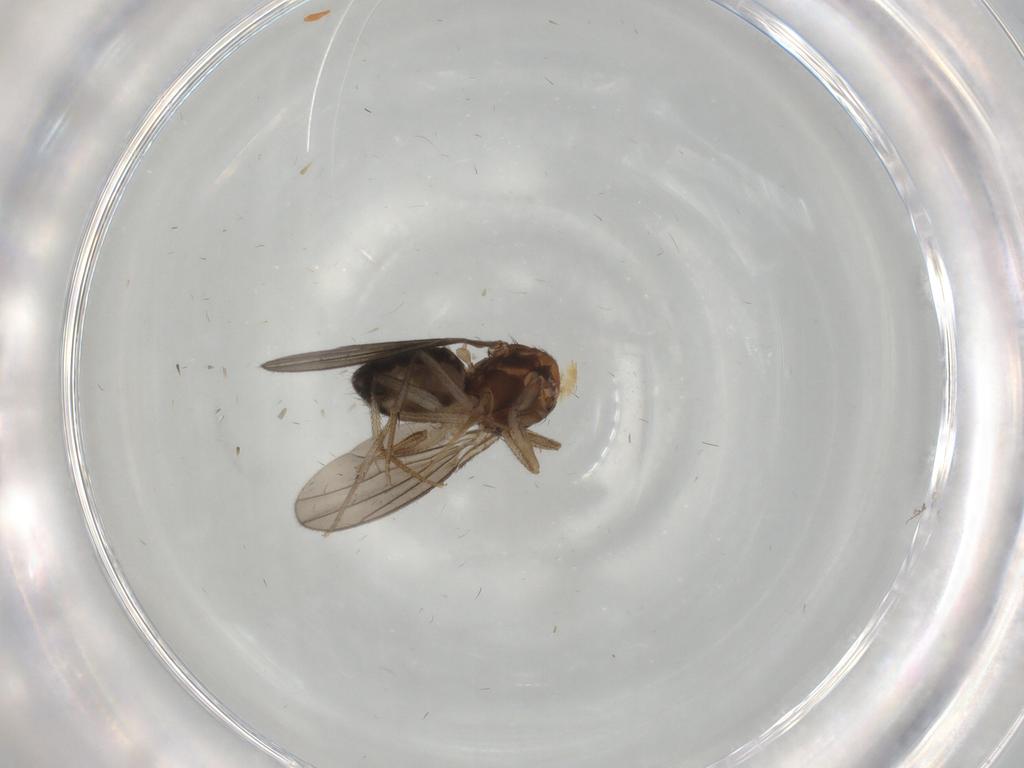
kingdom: Animalia
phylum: Arthropoda
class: Insecta
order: Diptera
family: Drosophilidae
